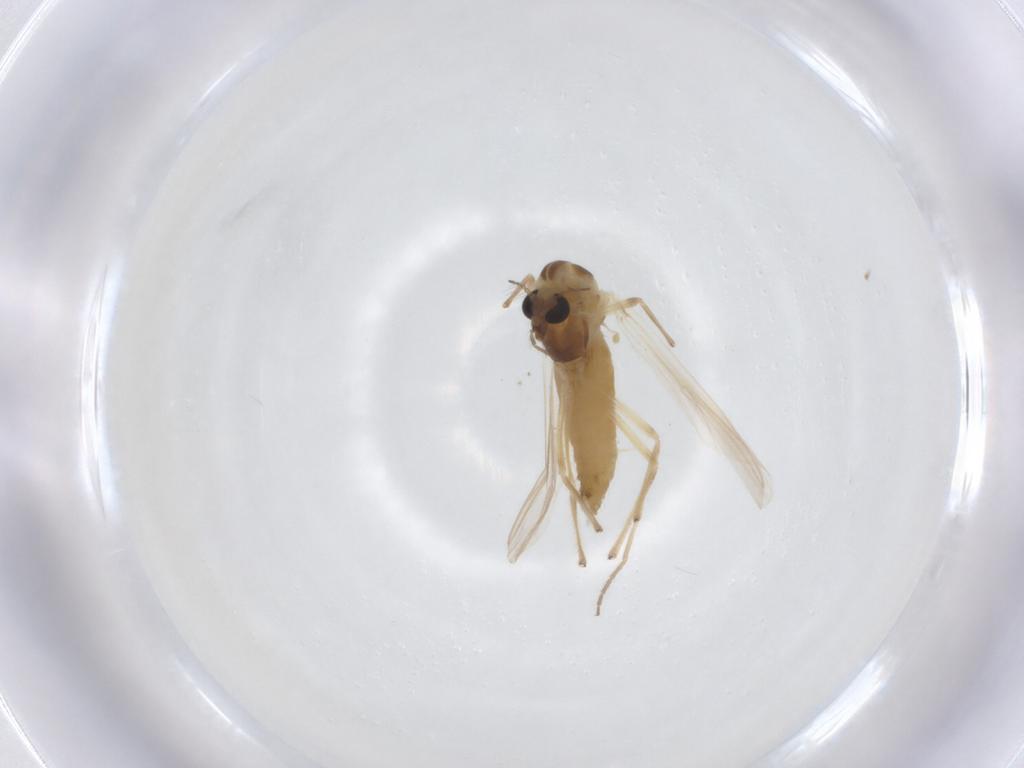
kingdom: Animalia
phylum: Arthropoda
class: Insecta
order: Diptera
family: Chironomidae
